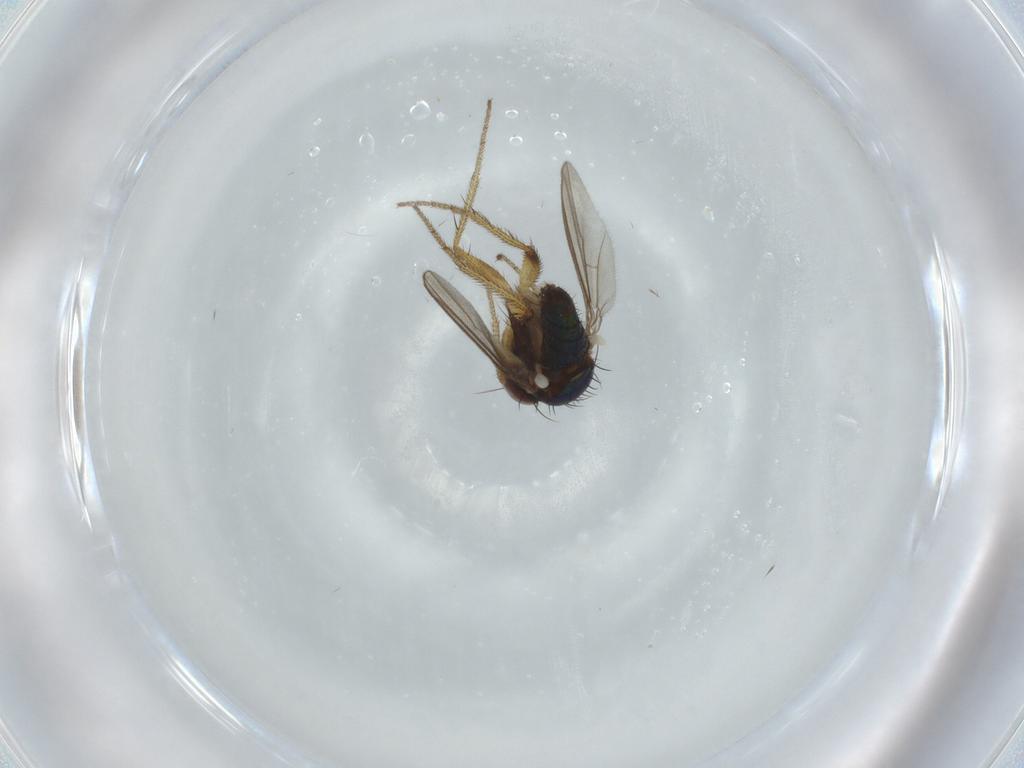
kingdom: Animalia
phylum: Arthropoda
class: Insecta
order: Diptera
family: Dolichopodidae
